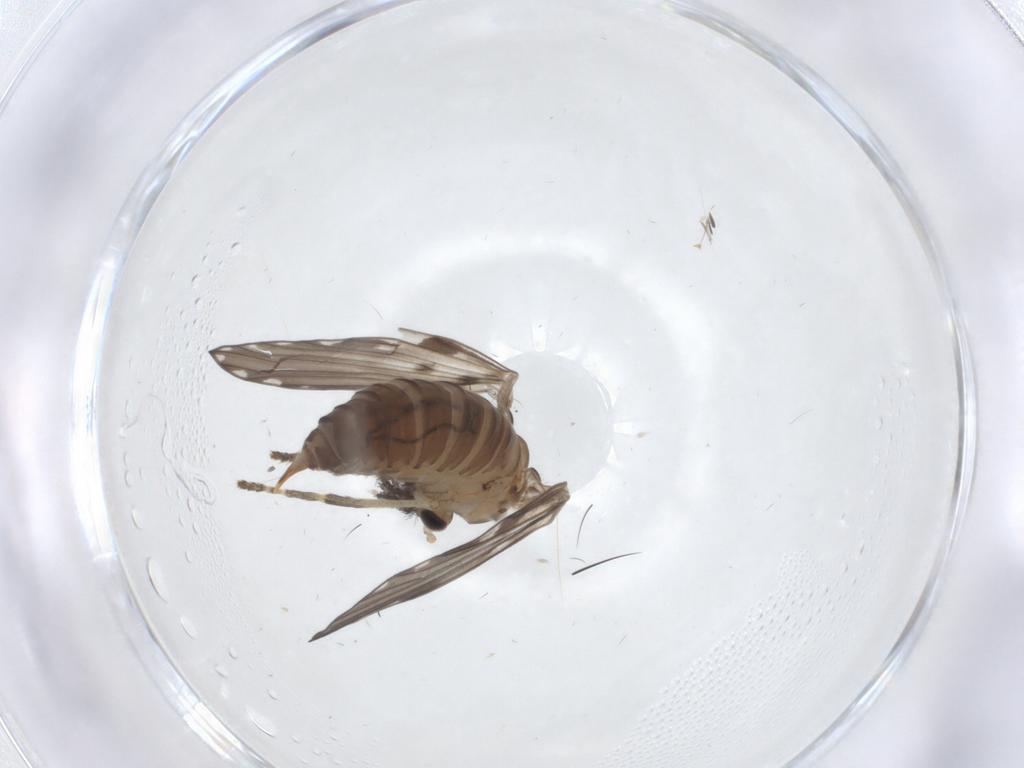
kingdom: Animalia
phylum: Arthropoda
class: Insecta
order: Diptera
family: Psychodidae
